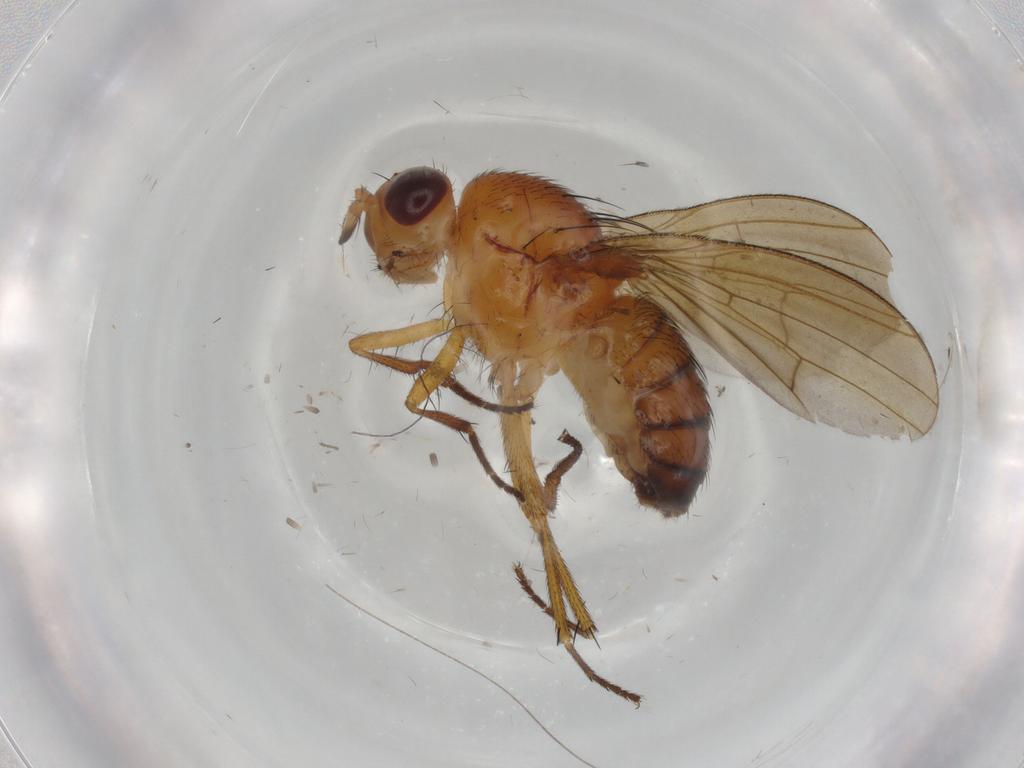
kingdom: Animalia
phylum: Arthropoda
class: Insecta
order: Diptera
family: Lauxaniidae
